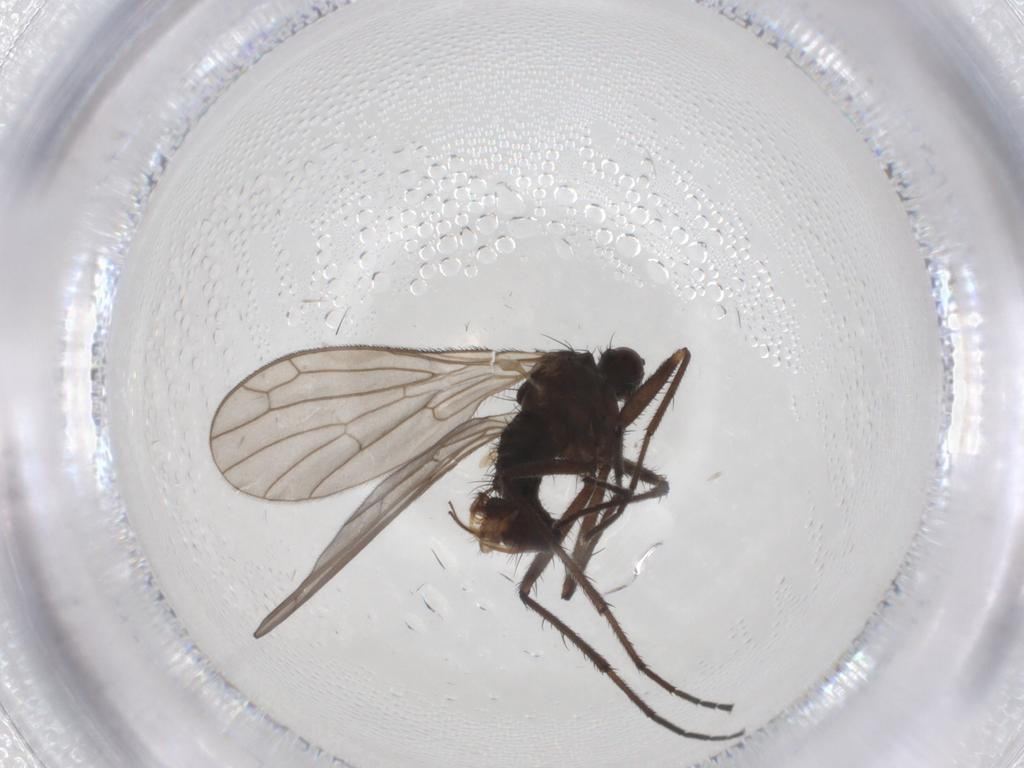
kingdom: Animalia
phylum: Arthropoda
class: Insecta
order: Diptera
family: Empididae
